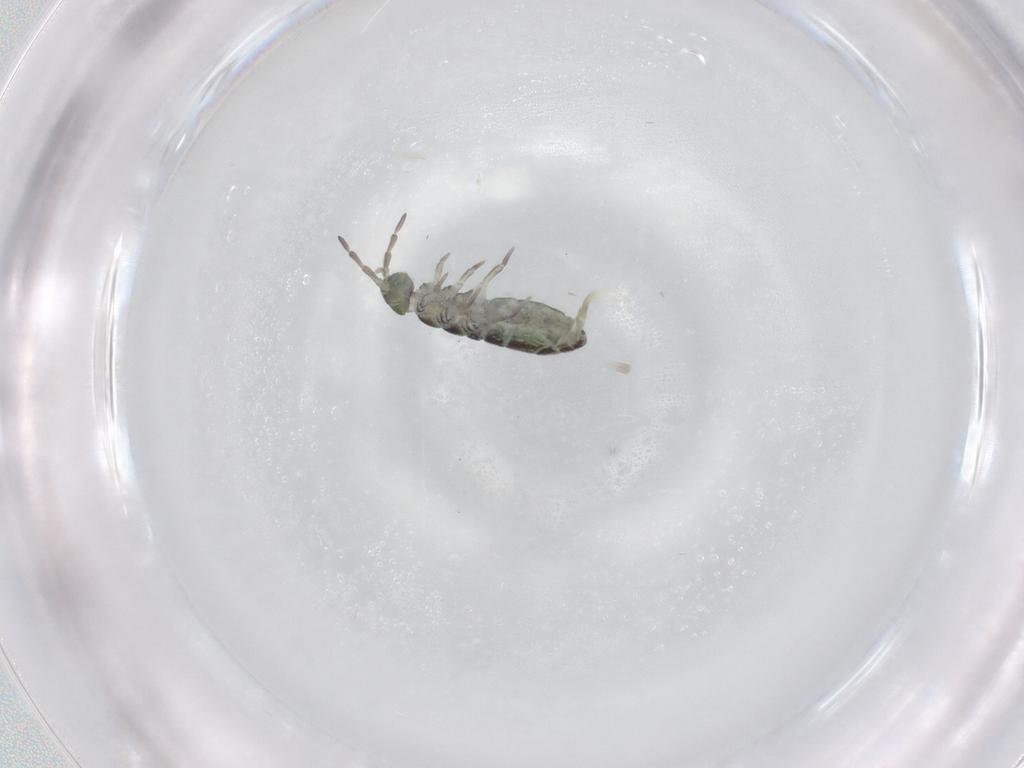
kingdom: Animalia
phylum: Arthropoda
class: Collembola
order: Entomobryomorpha
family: Isotomidae
